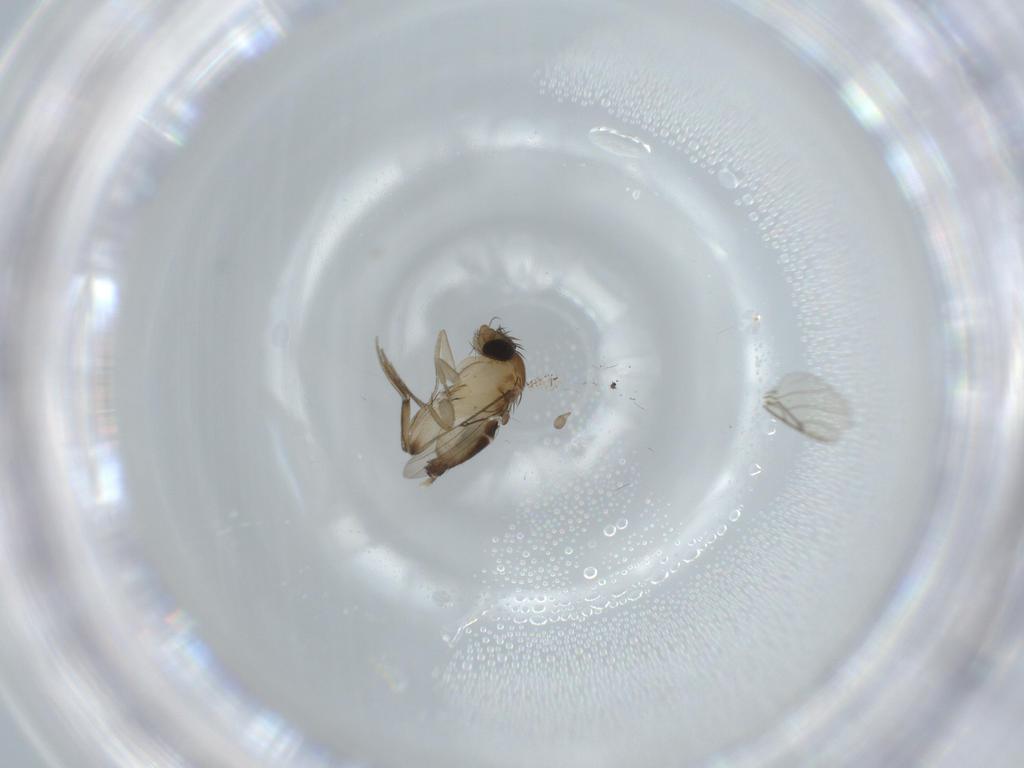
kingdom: Animalia
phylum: Arthropoda
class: Insecta
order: Diptera
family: Phoridae
